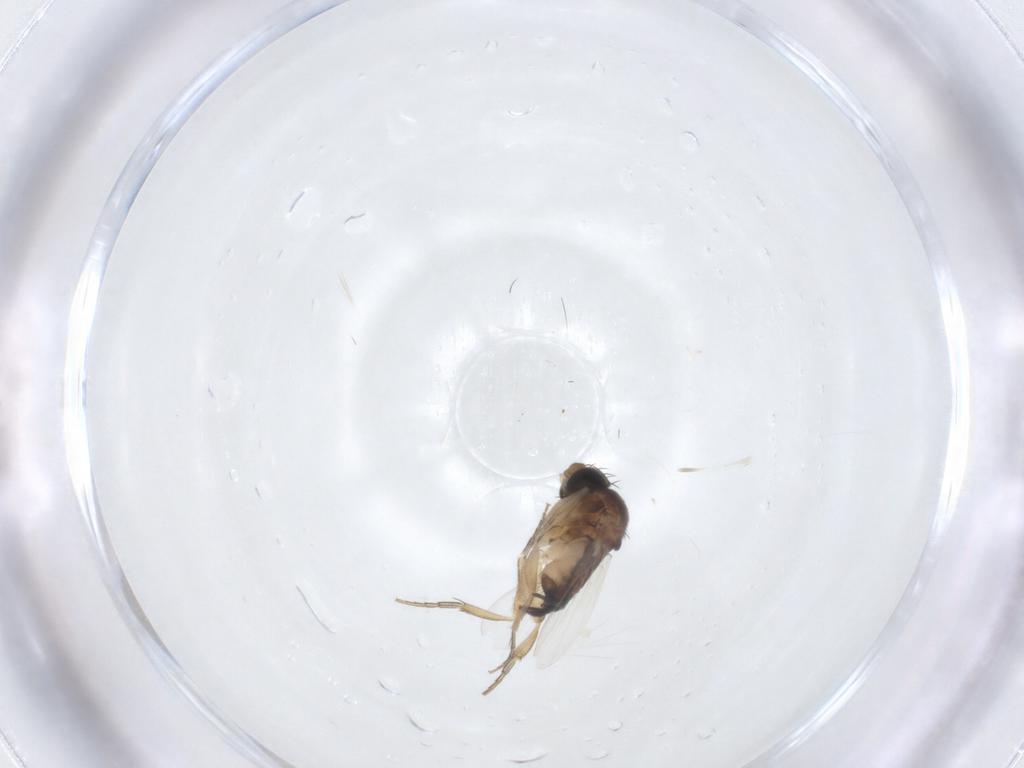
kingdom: Animalia
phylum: Arthropoda
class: Insecta
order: Diptera
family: Phoridae
